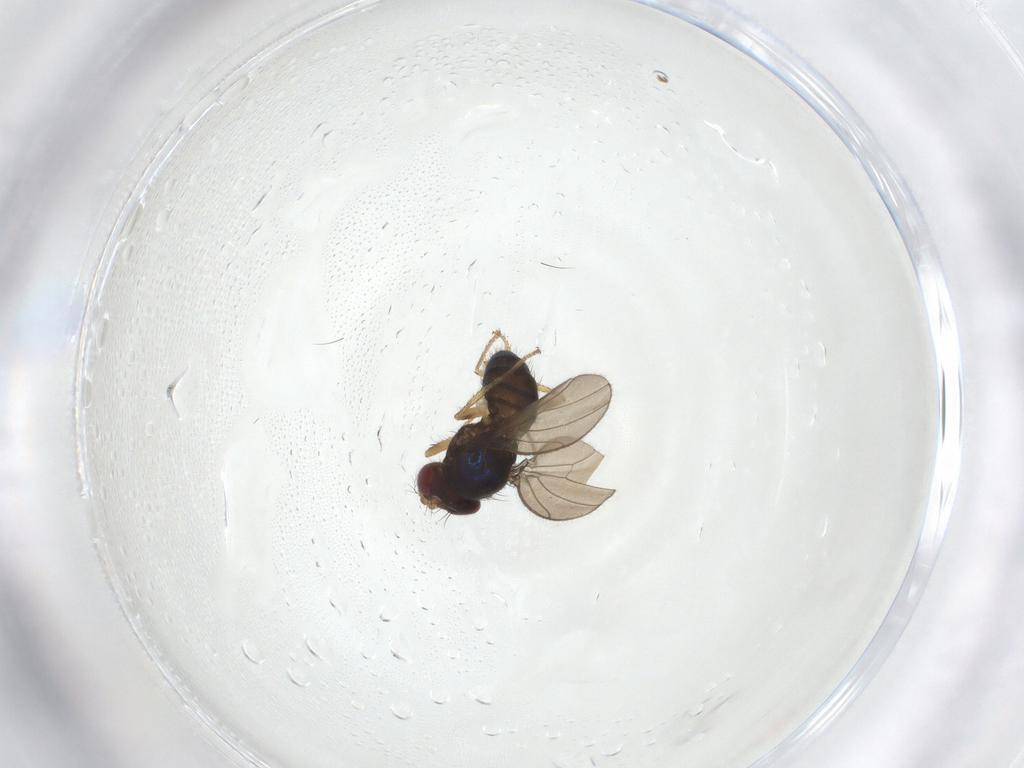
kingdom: Animalia
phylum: Arthropoda
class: Insecta
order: Diptera
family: Drosophilidae
